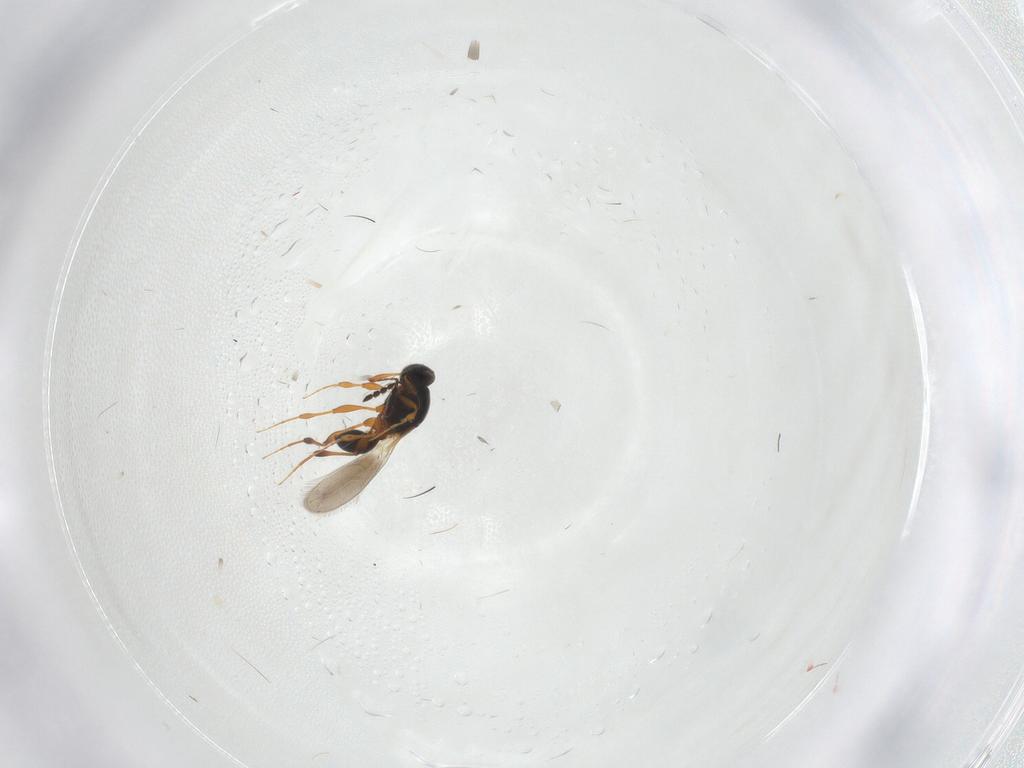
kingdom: Animalia
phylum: Arthropoda
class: Insecta
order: Hymenoptera
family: Platygastridae
